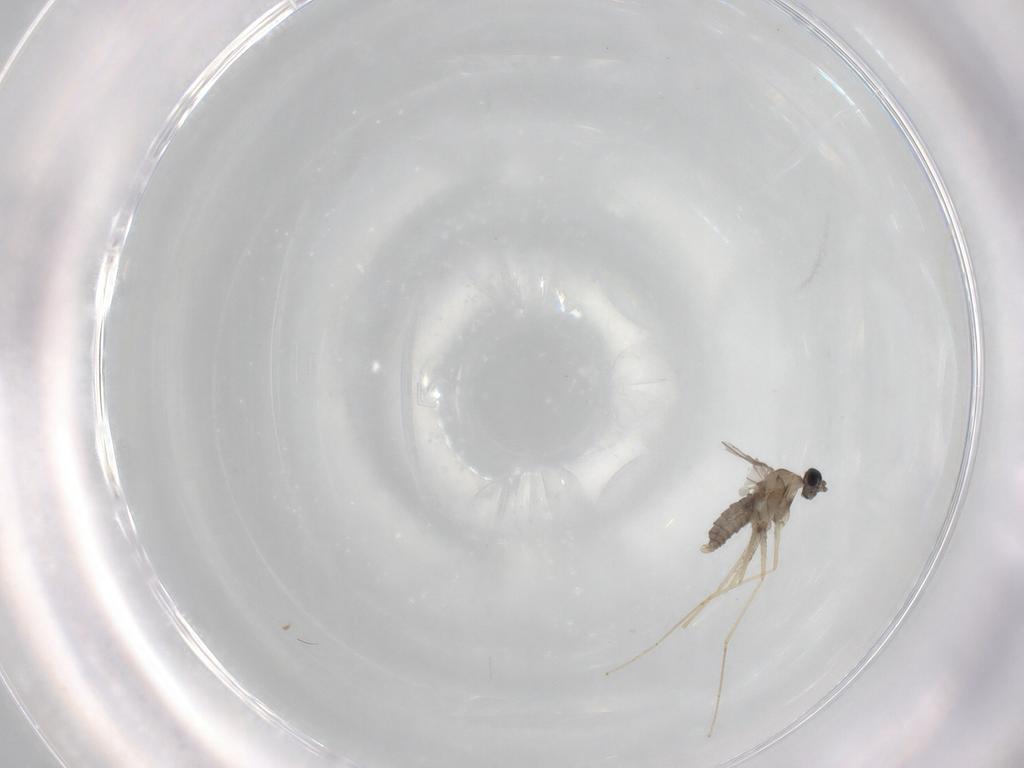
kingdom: Animalia
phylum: Arthropoda
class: Insecta
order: Diptera
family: Cecidomyiidae
